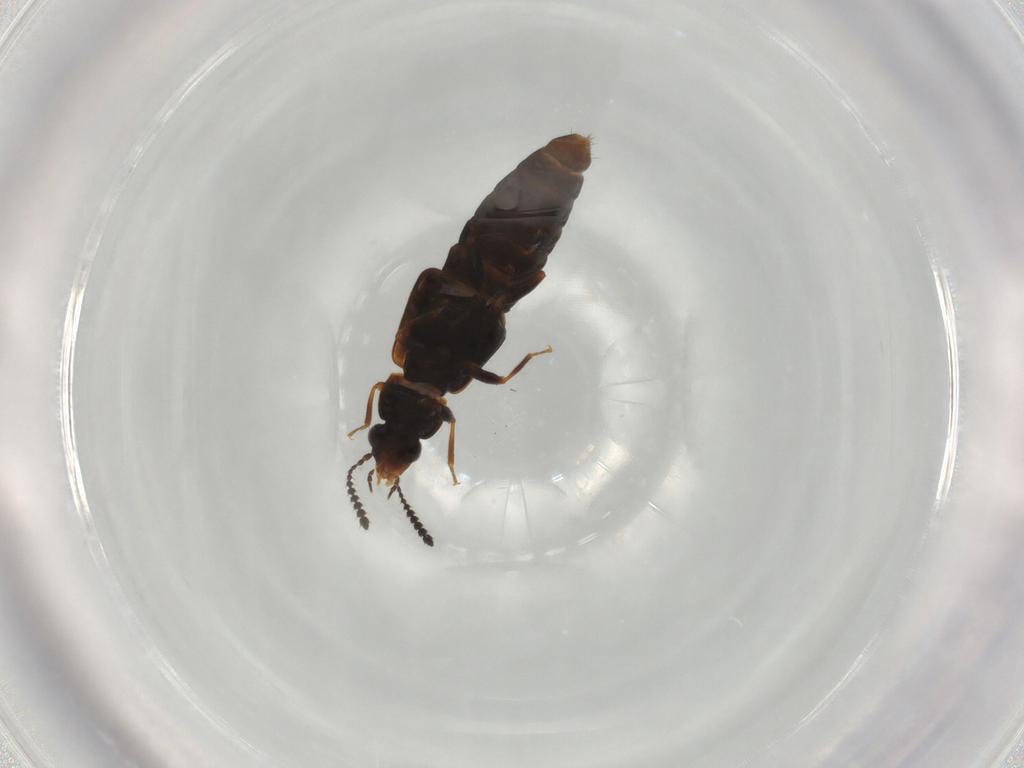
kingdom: Animalia
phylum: Arthropoda
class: Insecta
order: Coleoptera
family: Staphylinidae
